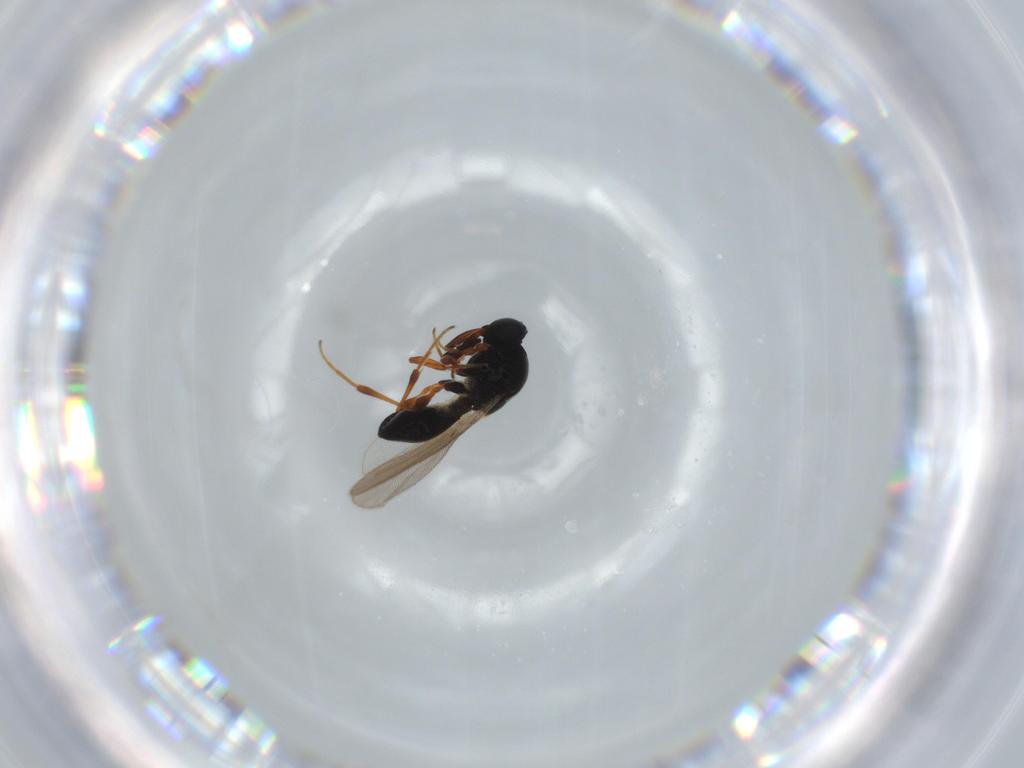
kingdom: Animalia
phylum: Arthropoda
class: Insecta
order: Hymenoptera
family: Platygastridae
